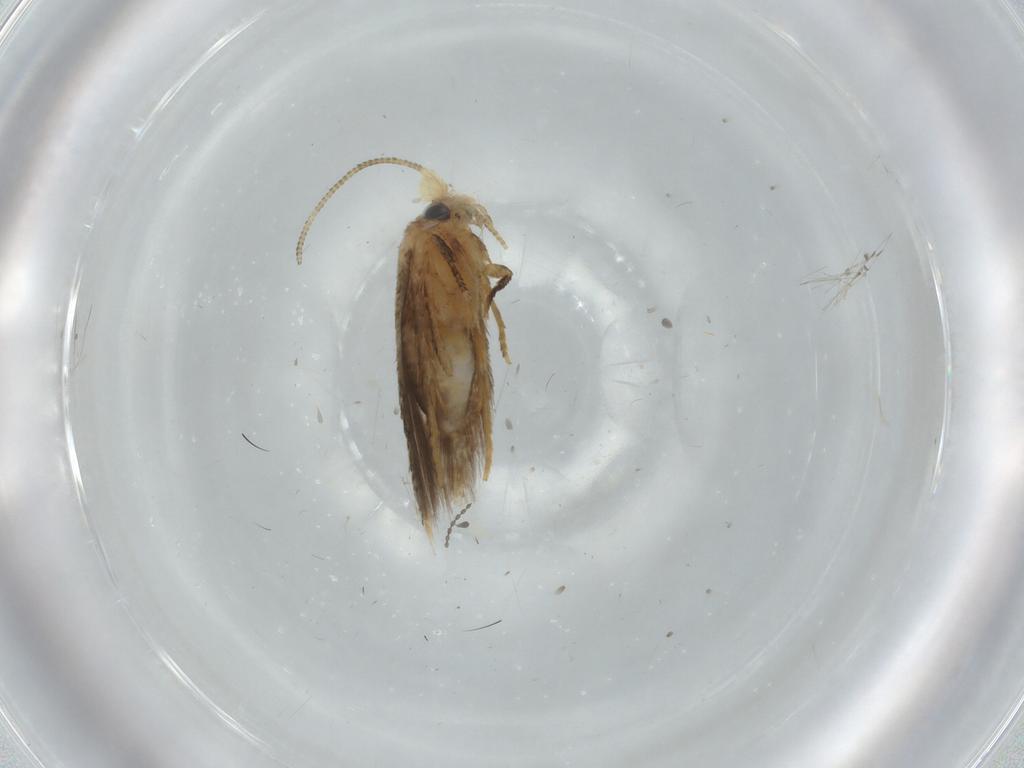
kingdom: Animalia
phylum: Arthropoda
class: Insecta
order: Lepidoptera
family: Nepticulidae
